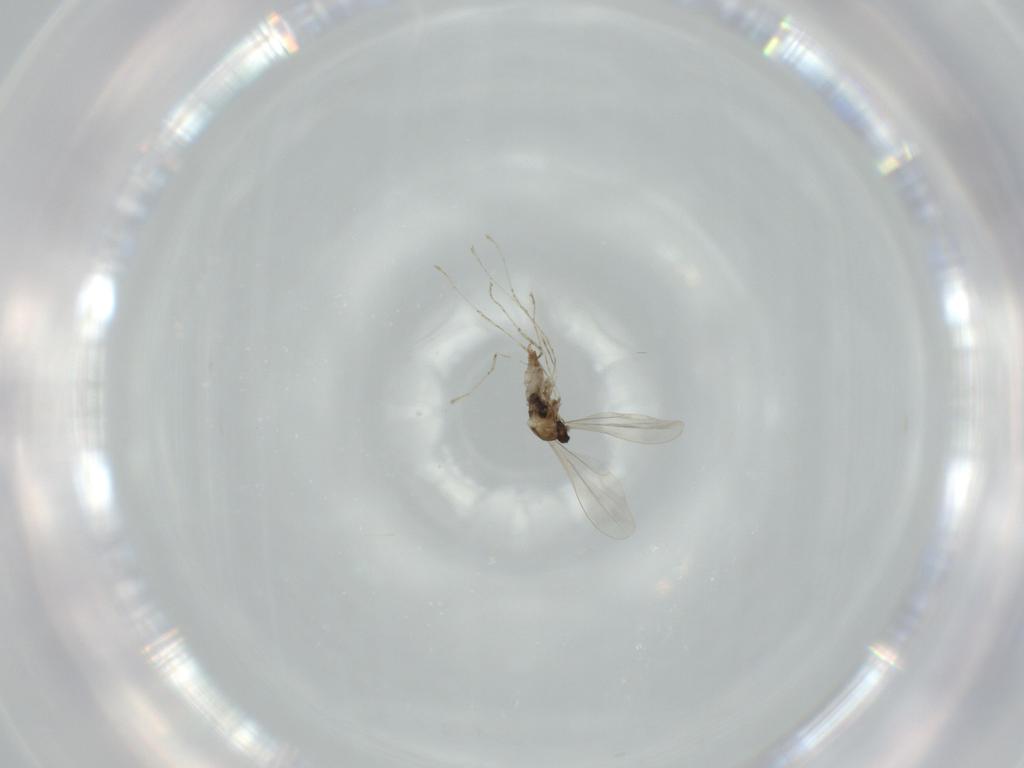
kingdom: Animalia
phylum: Arthropoda
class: Insecta
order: Diptera
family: Cecidomyiidae
